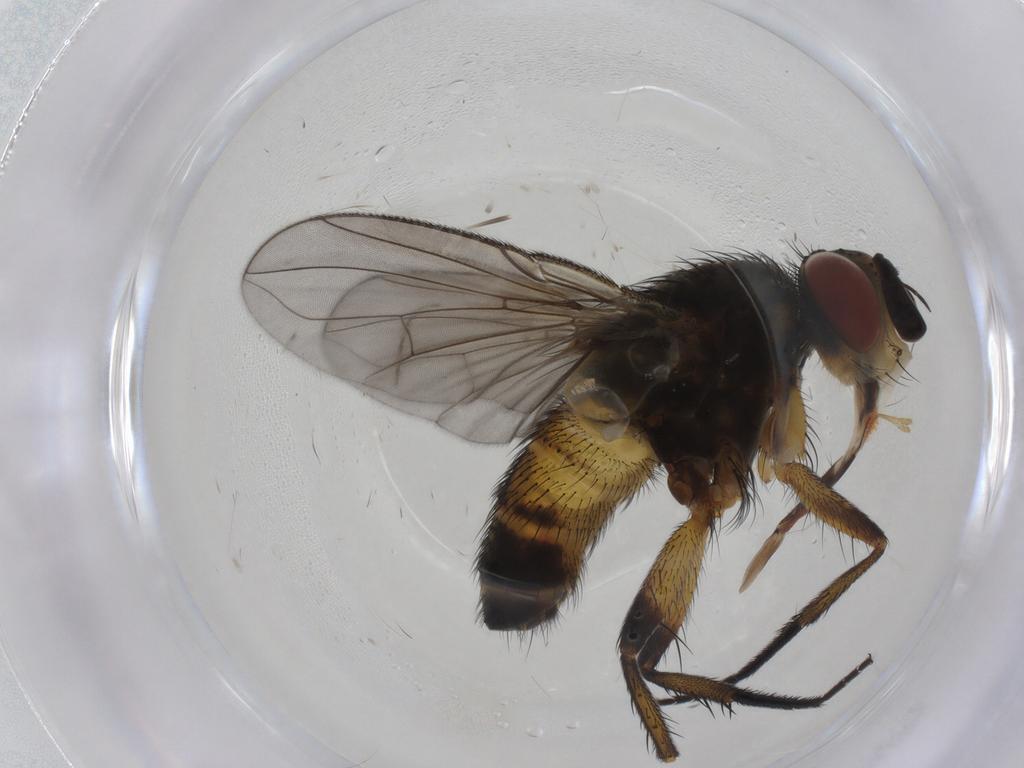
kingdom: Animalia
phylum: Arthropoda
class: Insecta
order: Diptera
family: Tachinidae
